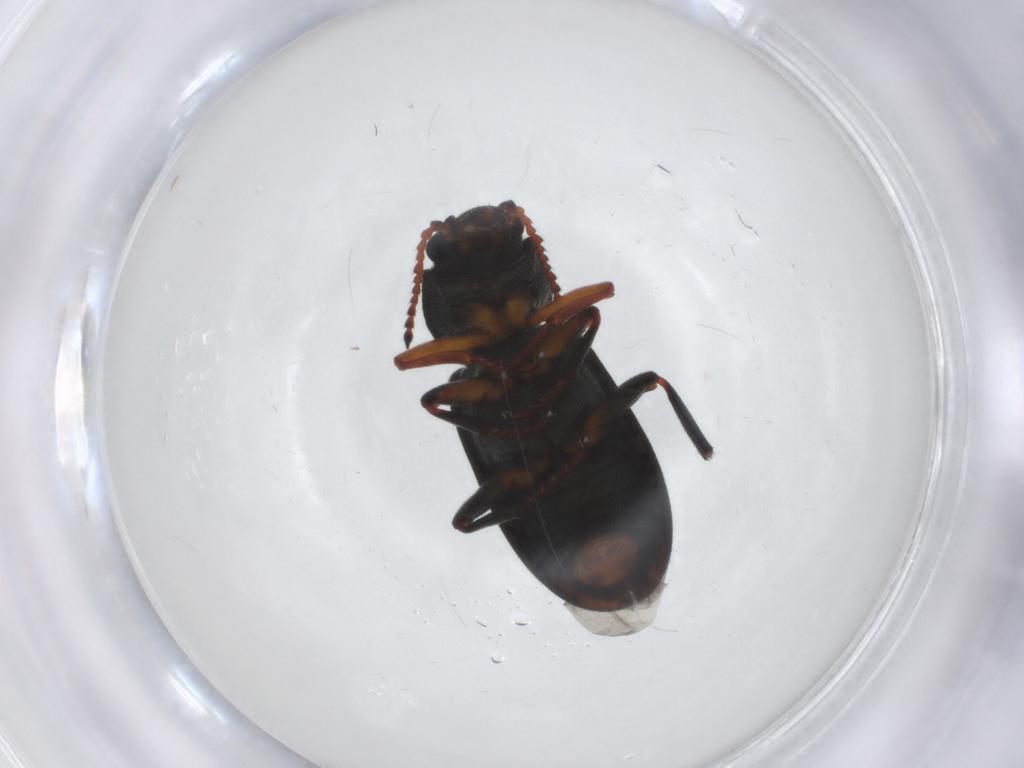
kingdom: Animalia
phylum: Arthropoda
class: Insecta
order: Coleoptera
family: Melyridae
